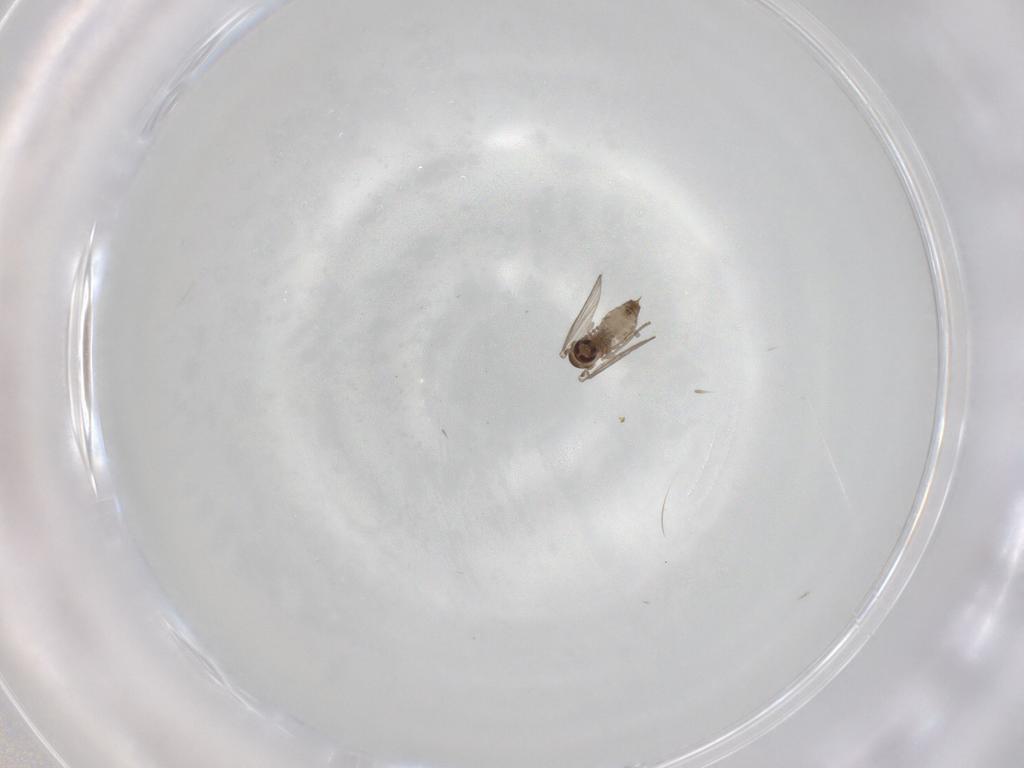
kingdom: Animalia
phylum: Arthropoda
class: Insecta
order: Diptera
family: Psychodidae
